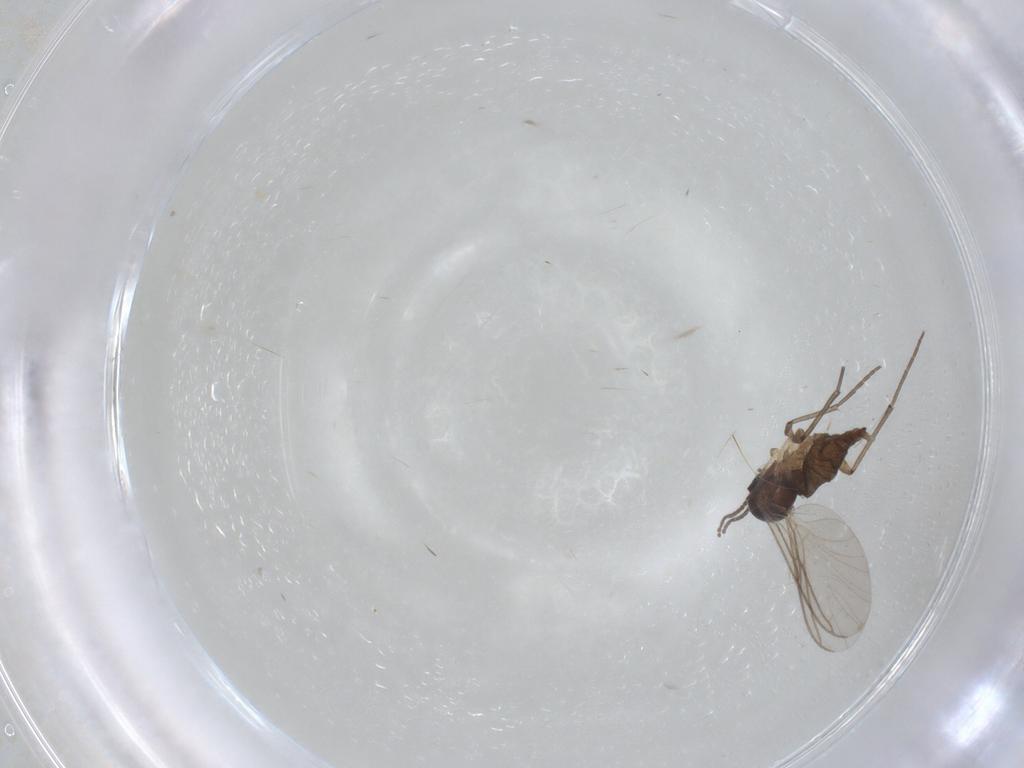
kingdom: Animalia
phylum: Arthropoda
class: Insecta
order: Diptera
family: Sciaridae
